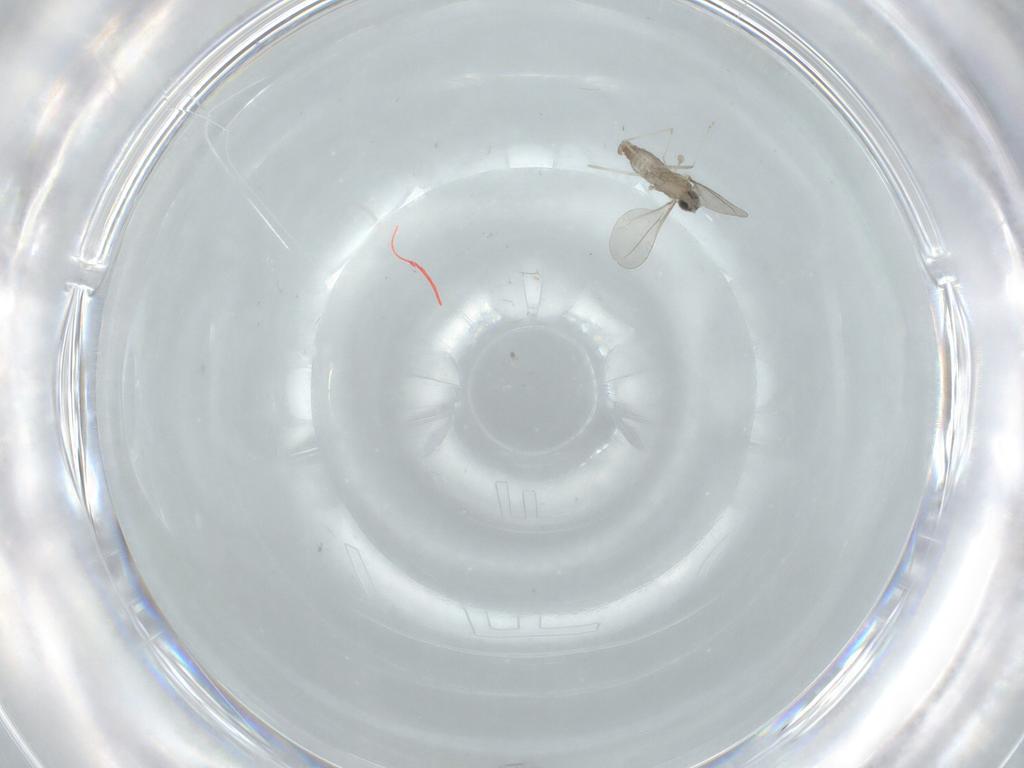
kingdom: Animalia
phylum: Arthropoda
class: Insecta
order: Diptera
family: Cecidomyiidae
